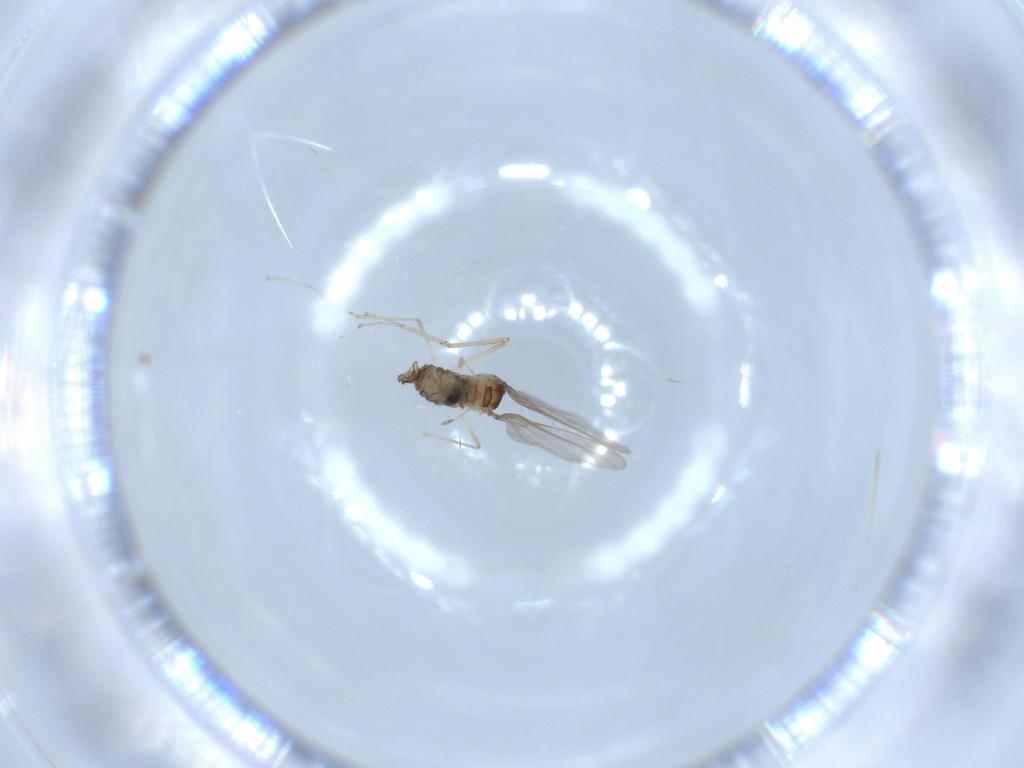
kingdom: Animalia
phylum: Arthropoda
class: Insecta
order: Diptera
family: Cecidomyiidae
